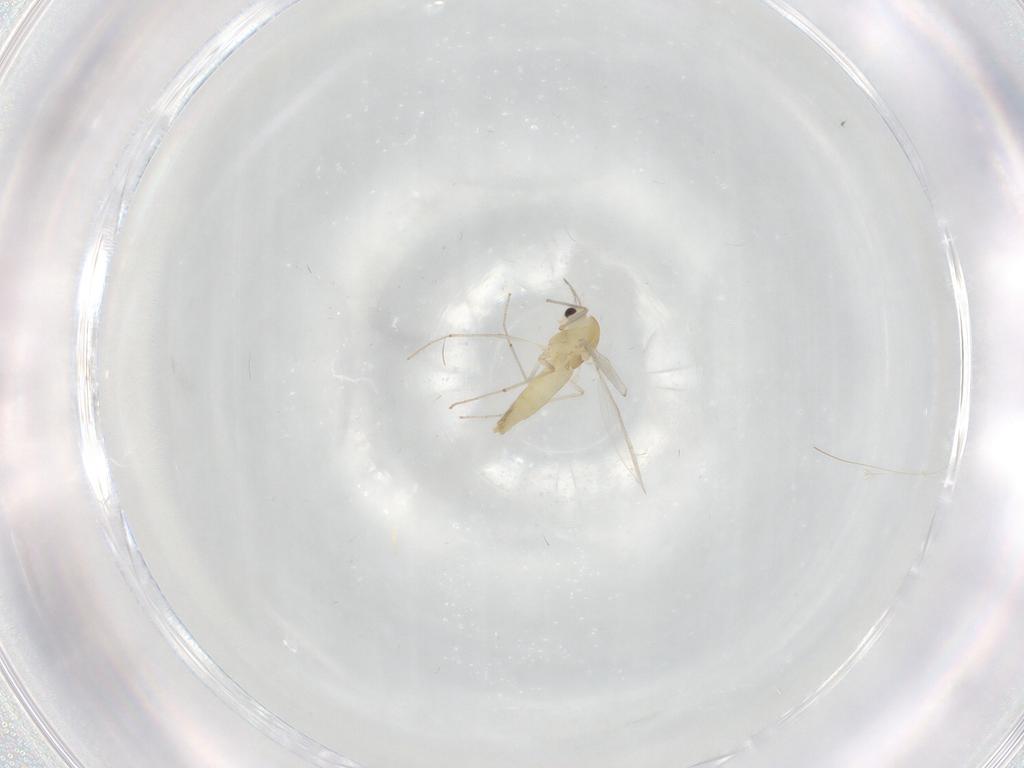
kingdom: Animalia
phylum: Arthropoda
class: Insecta
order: Diptera
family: Chironomidae
